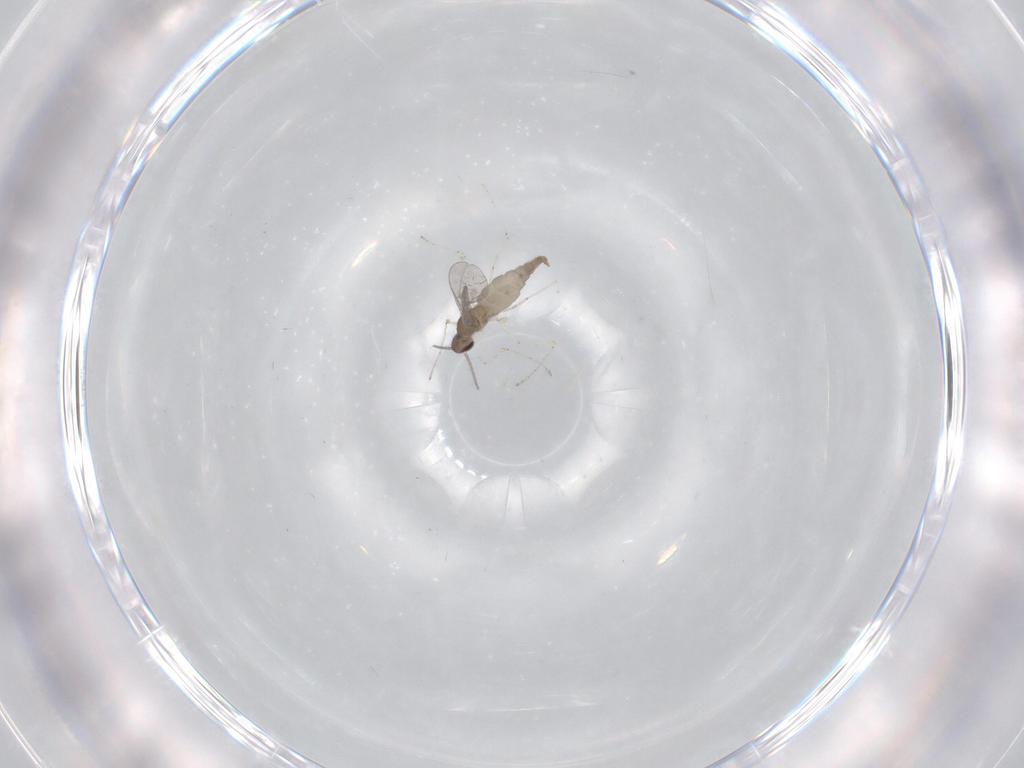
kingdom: Animalia
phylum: Arthropoda
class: Insecta
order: Diptera
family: Cecidomyiidae
